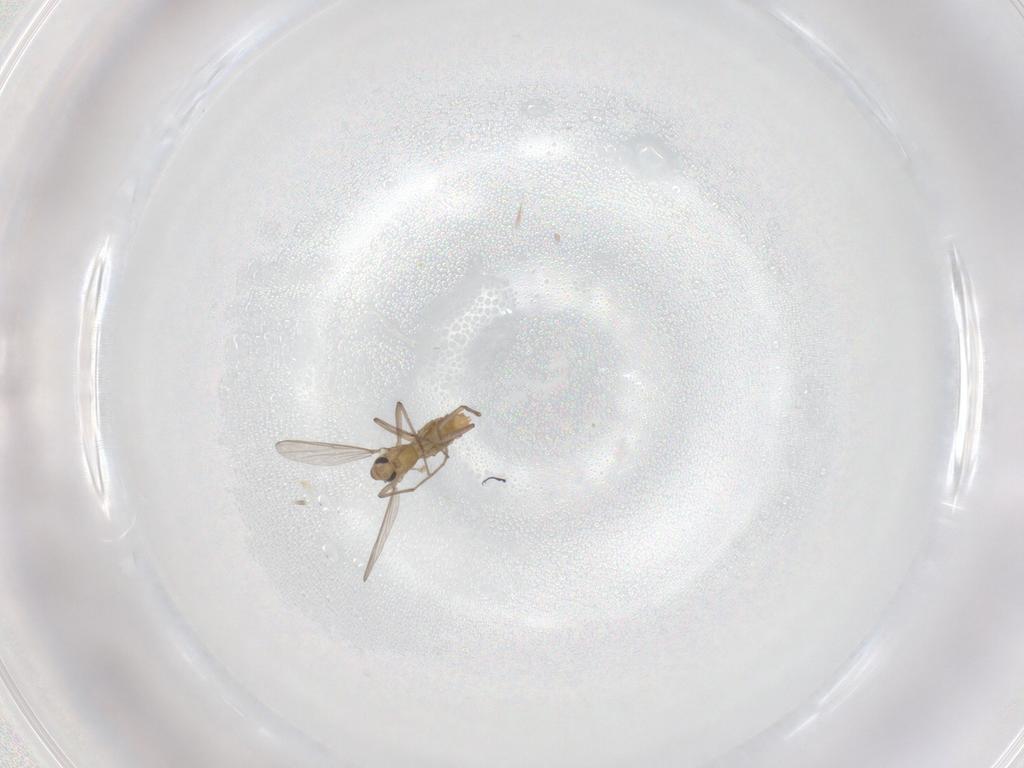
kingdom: Animalia
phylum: Arthropoda
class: Insecta
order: Diptera
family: Chironomidae
